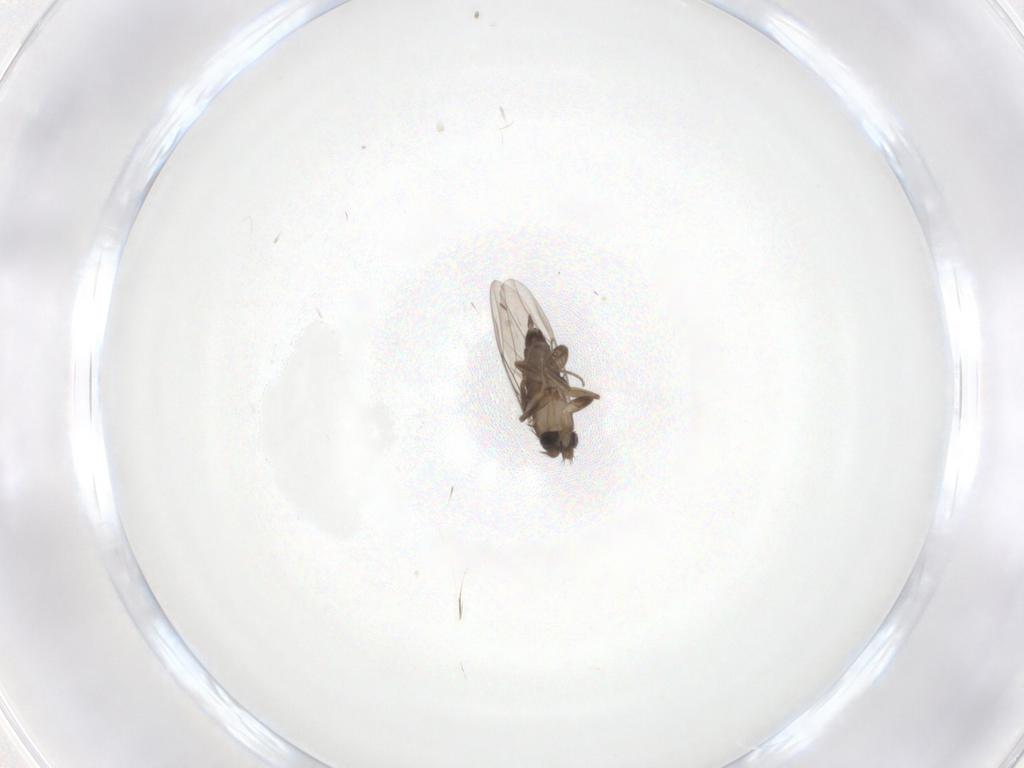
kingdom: Animalia
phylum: Arthropoda
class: Insecta
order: Diptera
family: Phoridae
